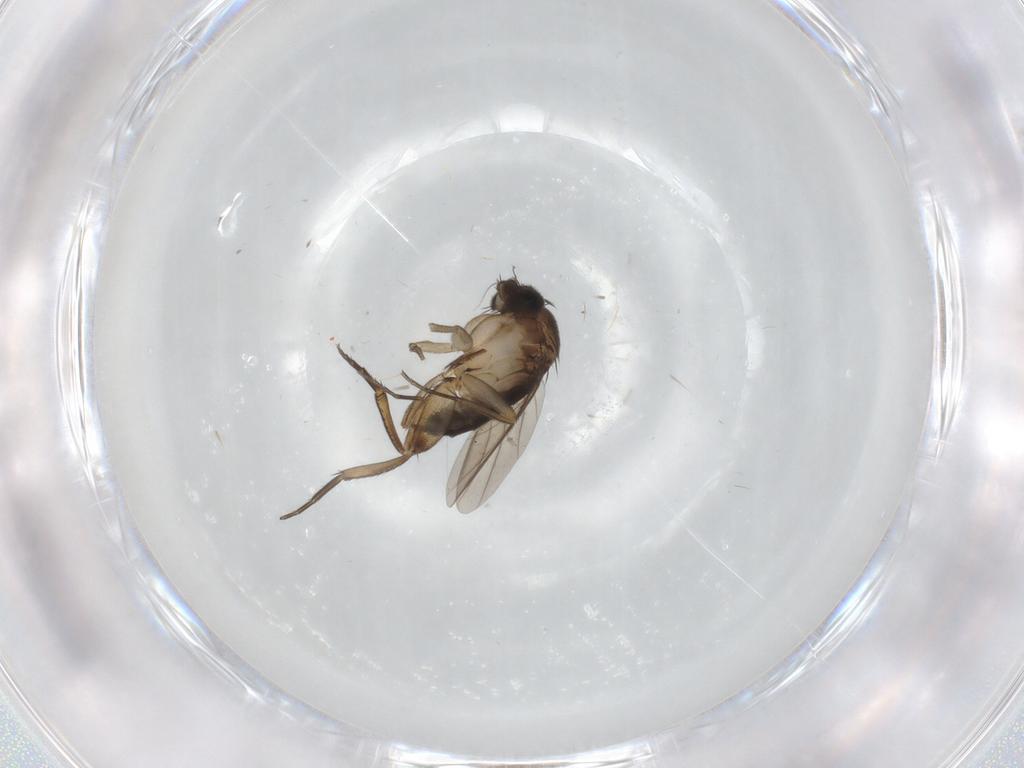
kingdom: Animalia
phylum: Arthropoda
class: Insecta
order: Diptera
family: Phoridae
